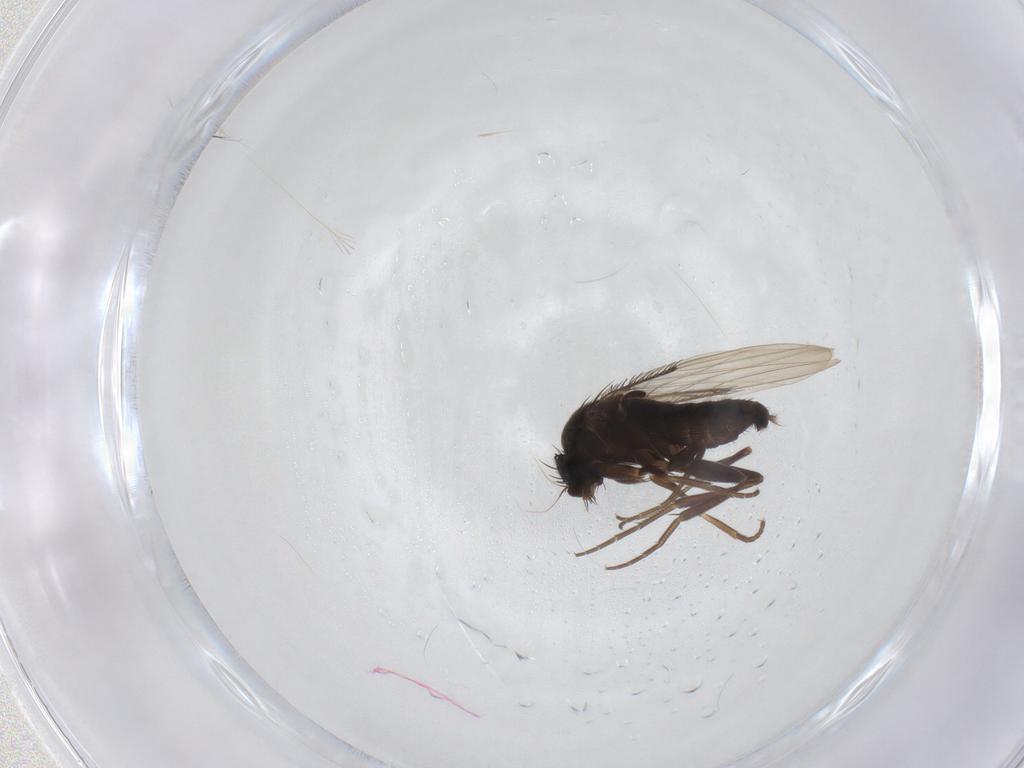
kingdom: Animalia
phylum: Arthropoda
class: Insecta
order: Diptera
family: Phoridae
